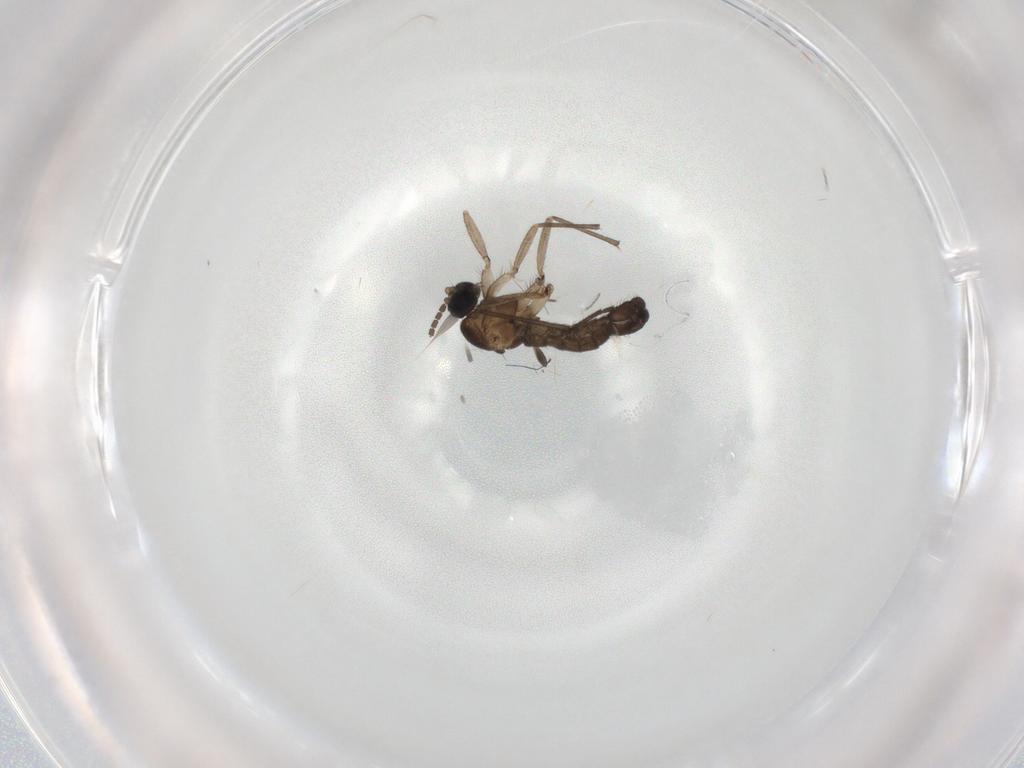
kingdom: Animalia
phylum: Arthropoda
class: Insecta
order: Diptera
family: Sciaridae
